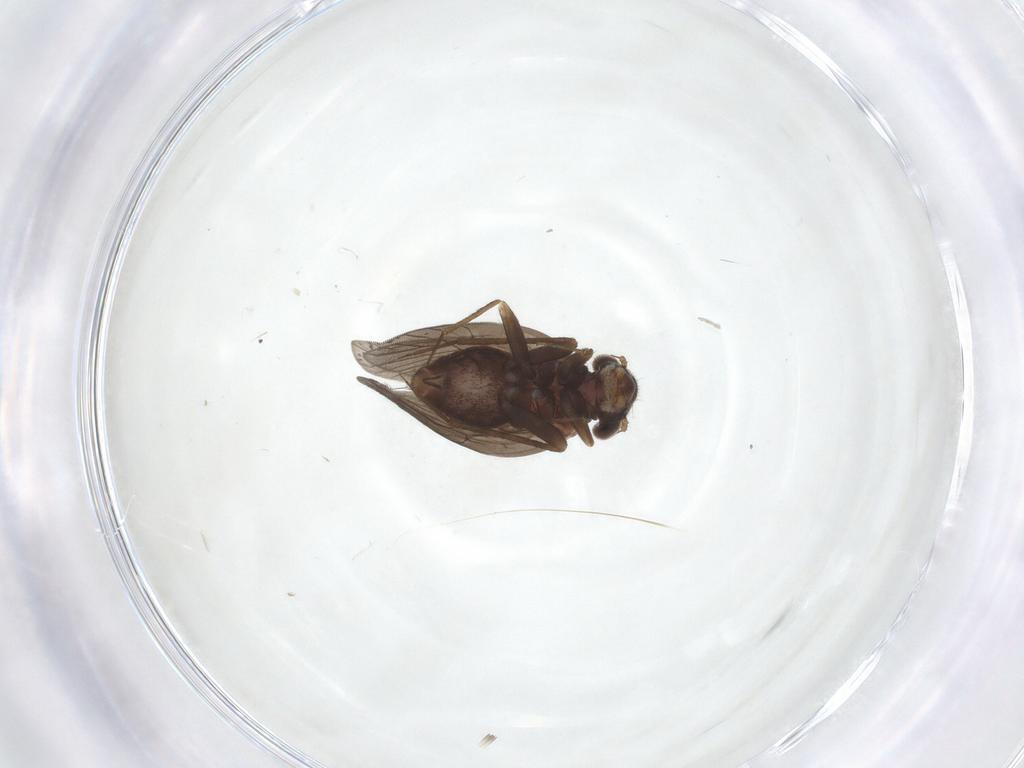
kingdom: Animalia
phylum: Arthropoda
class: Insecta
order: Psocodea
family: Lepidopsocidae
